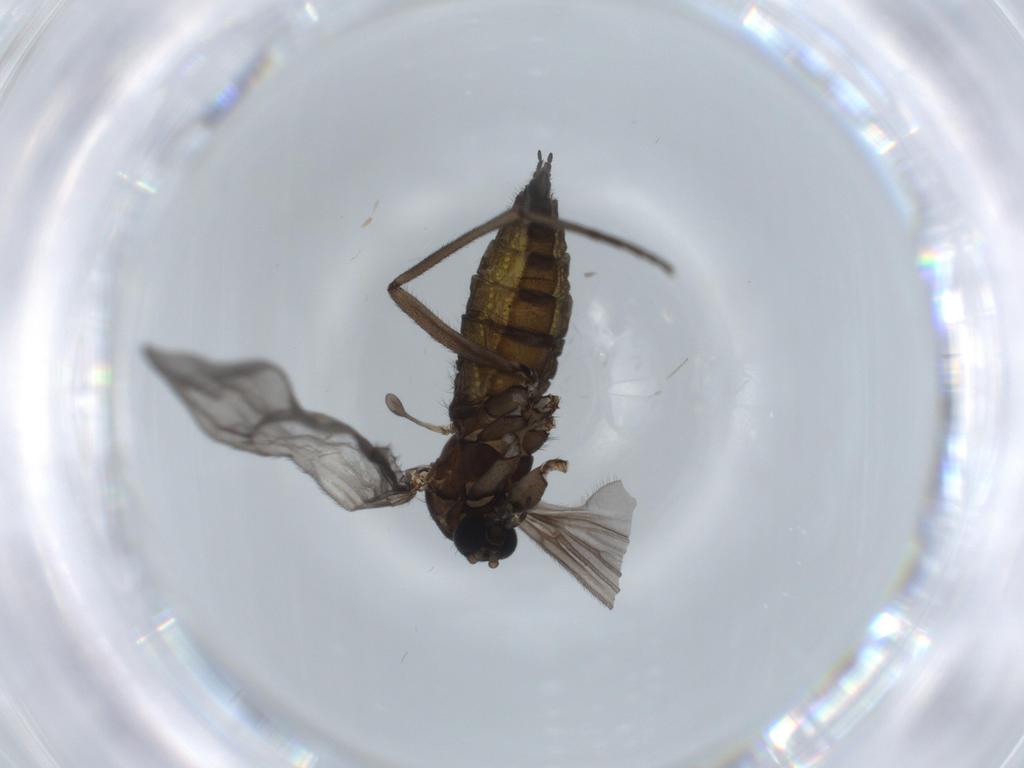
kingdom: Animalia
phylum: Arthropoda
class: Insecta
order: Diptera
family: Sciaridae
